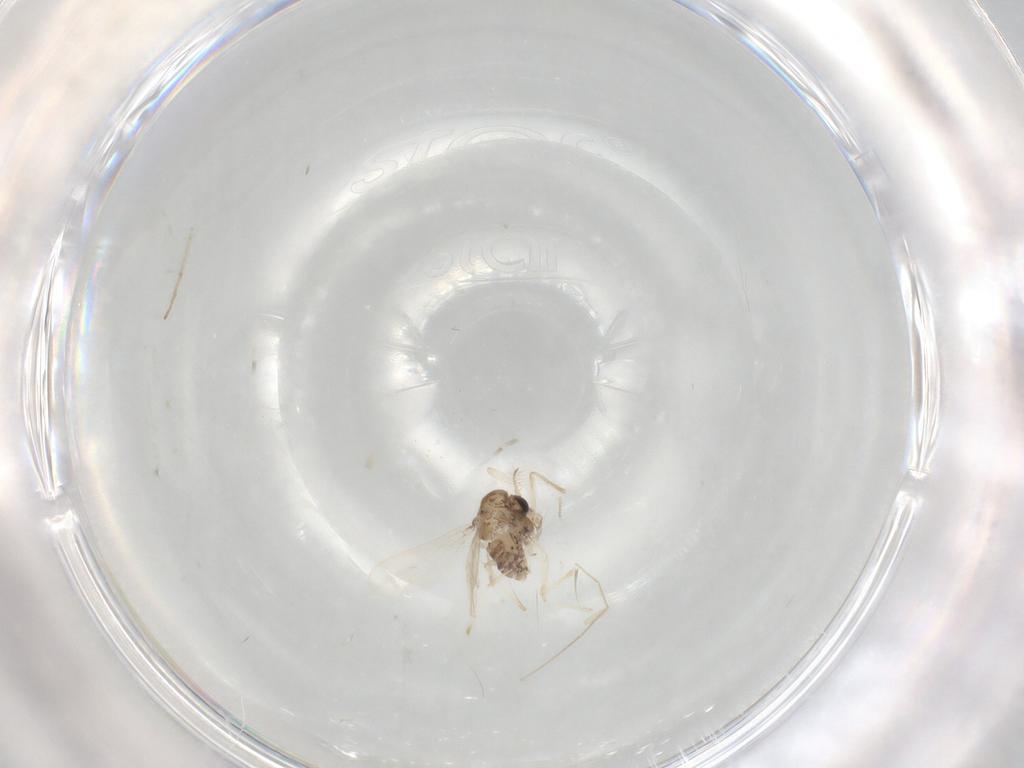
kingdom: Animalia
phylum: Arthropoda
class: Insecta
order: Diptera
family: Chironomidae
